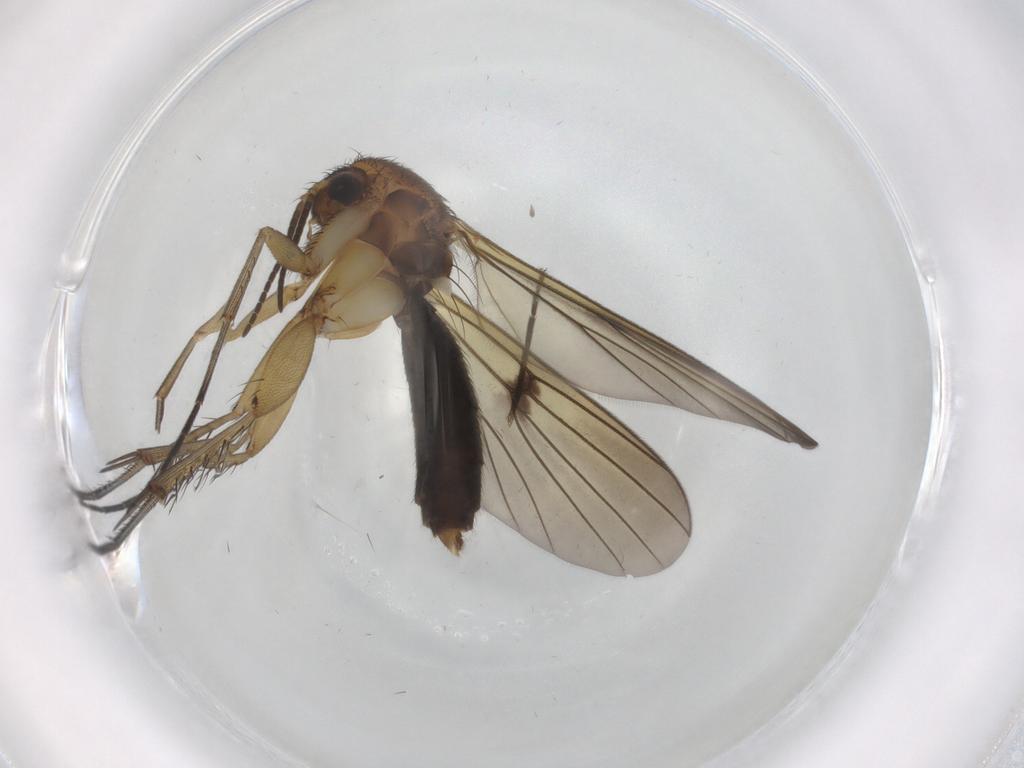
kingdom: Animalia
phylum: Arthropoda
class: Insecta
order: Diptera
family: Mycetophilidae
